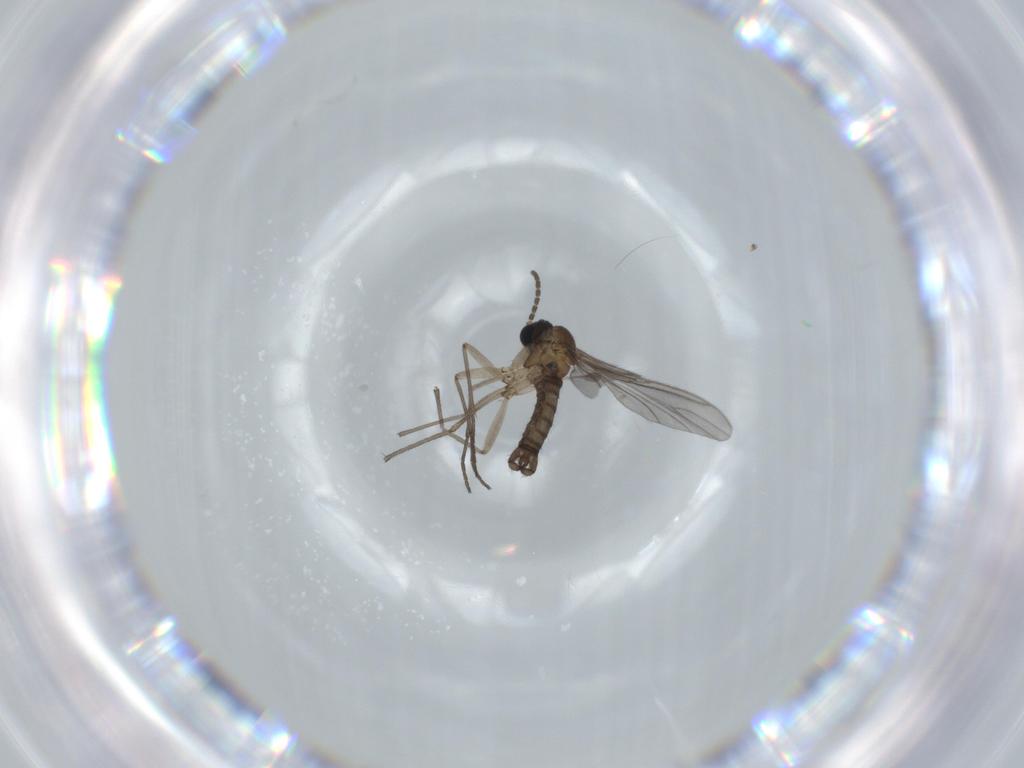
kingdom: Animalia
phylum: Arthropoda
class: Insecta
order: Diptera
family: Sciaridae
